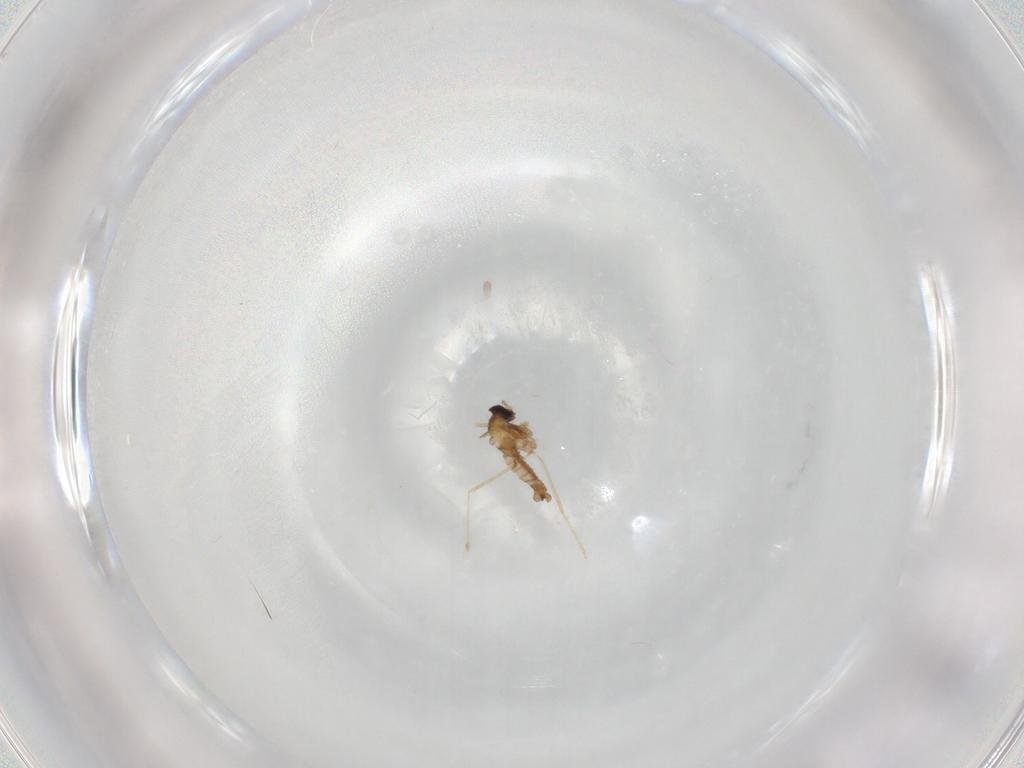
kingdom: Animalia
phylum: Arthropoda
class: Insecta
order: Diptera
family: Cecidomyiidae
